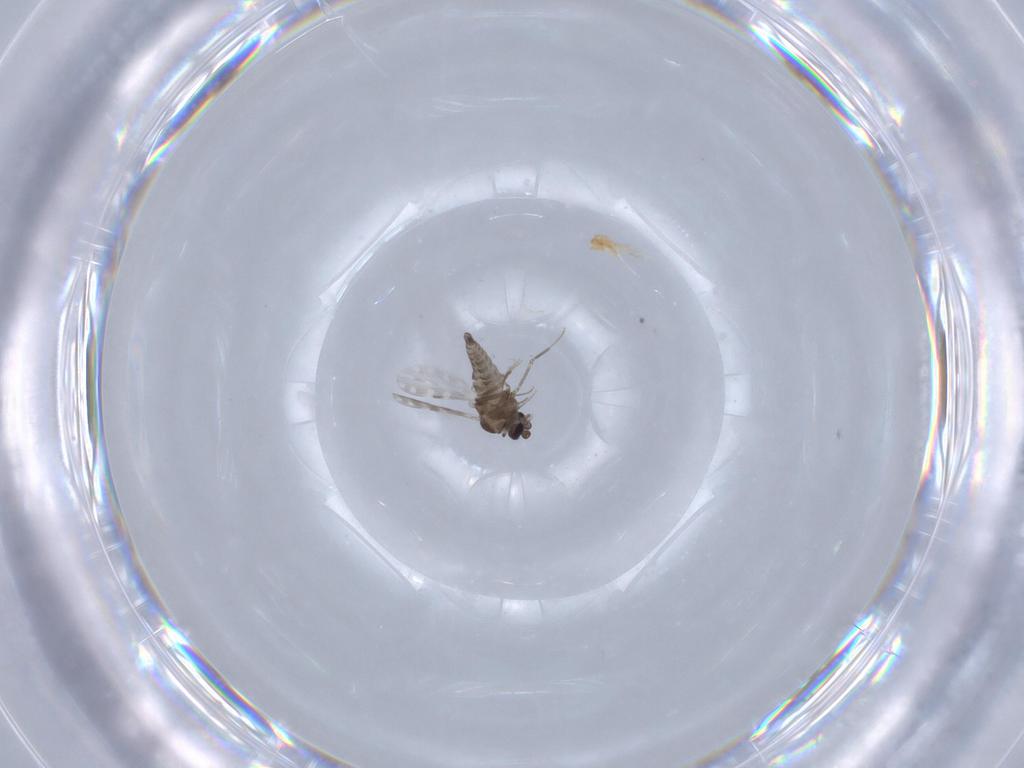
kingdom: Animalia
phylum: Arthropoda
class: Insecta
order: Diptera
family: Ceratopogonidae
